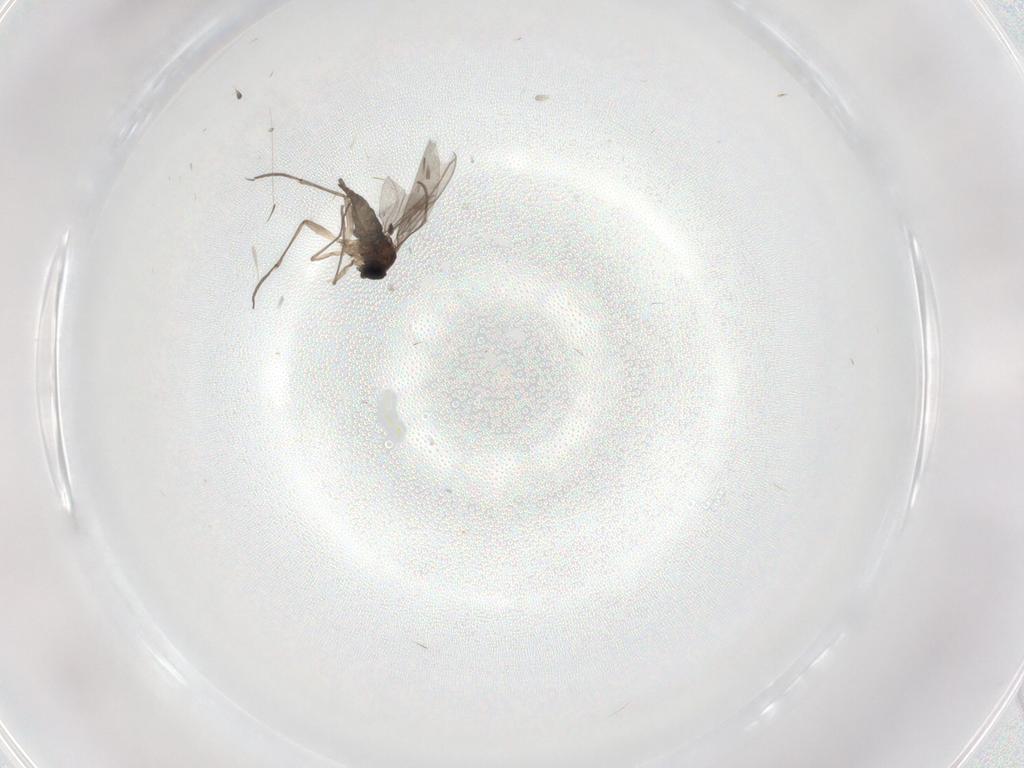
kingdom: Animalia
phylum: Arthropoda
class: Insecta
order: Diptera
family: Sciaridae
